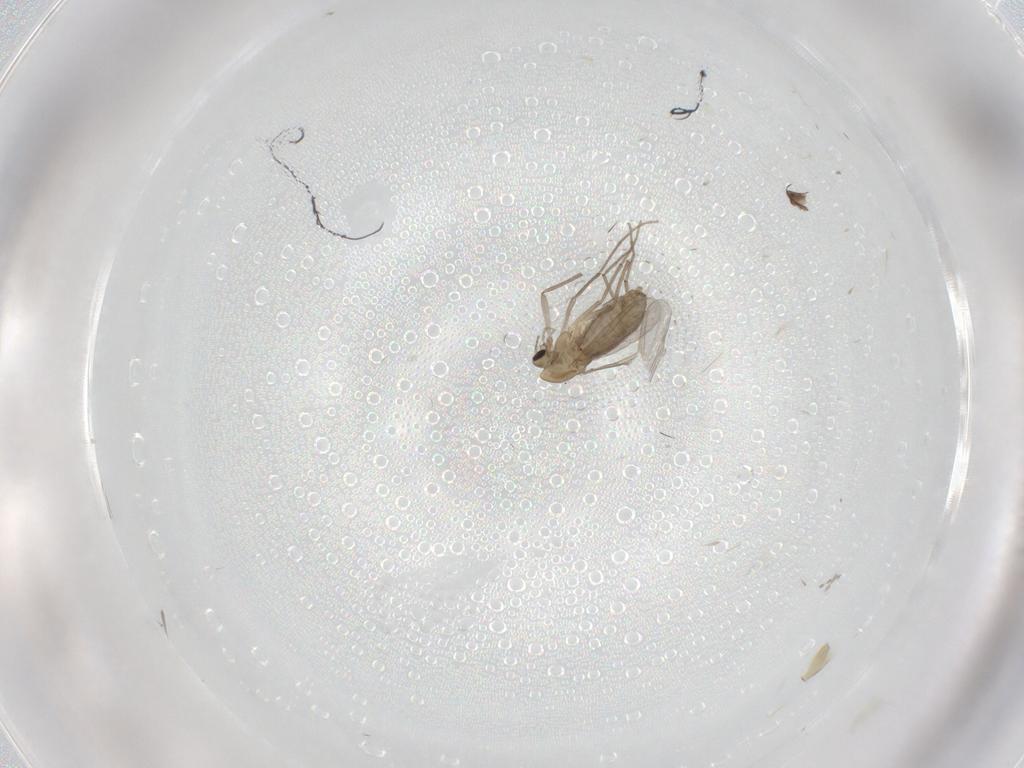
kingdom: Animalia
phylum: Arthropoda
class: Insecta
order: Diptera
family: Chironomidae
